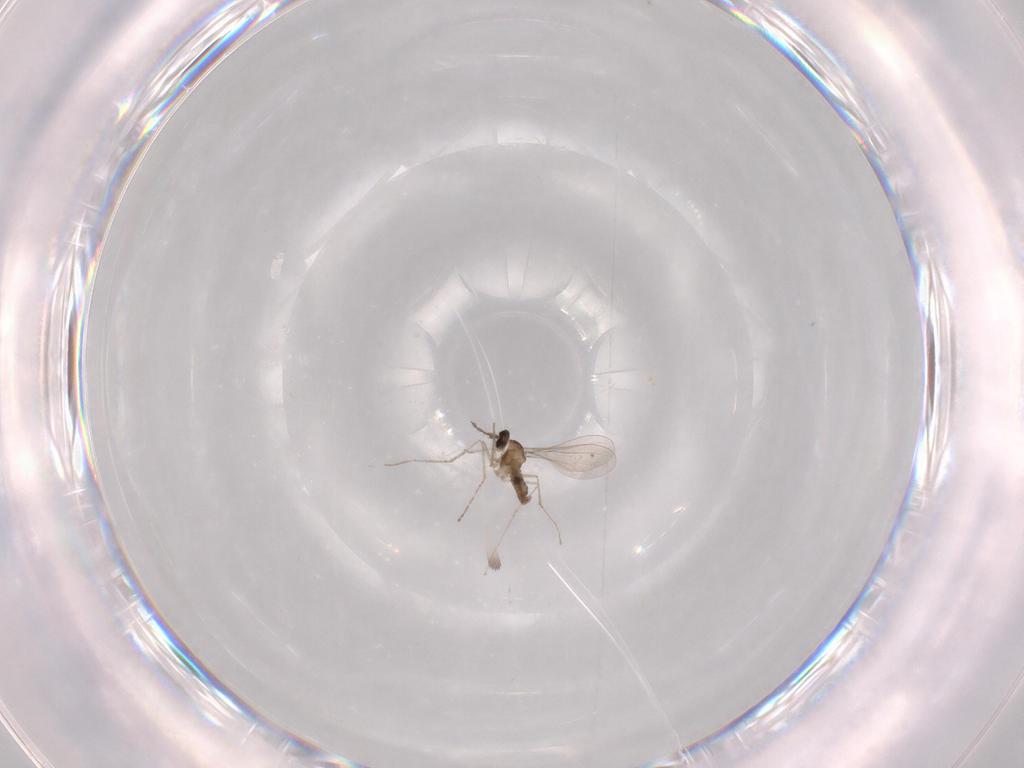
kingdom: Animalia
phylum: Arthropoda
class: Insecta
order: Diptera
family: Cecidomyiidae
